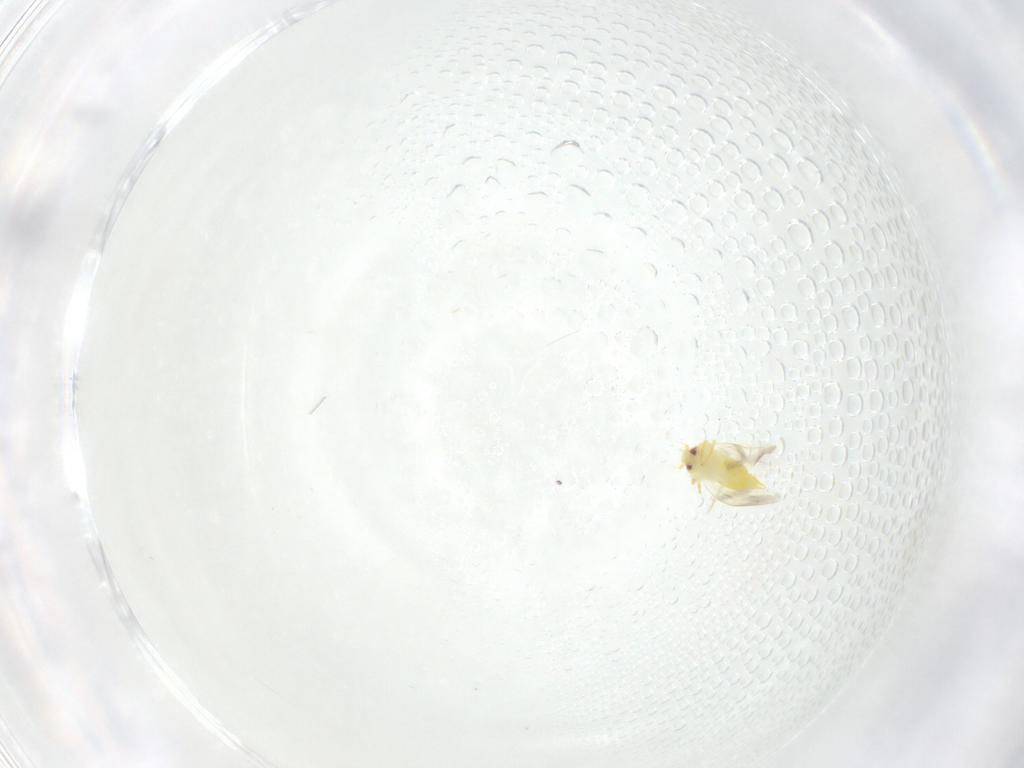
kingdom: Animalia
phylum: Arthropoda
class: Insecta
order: Hemiptera
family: Aleyrodidae
